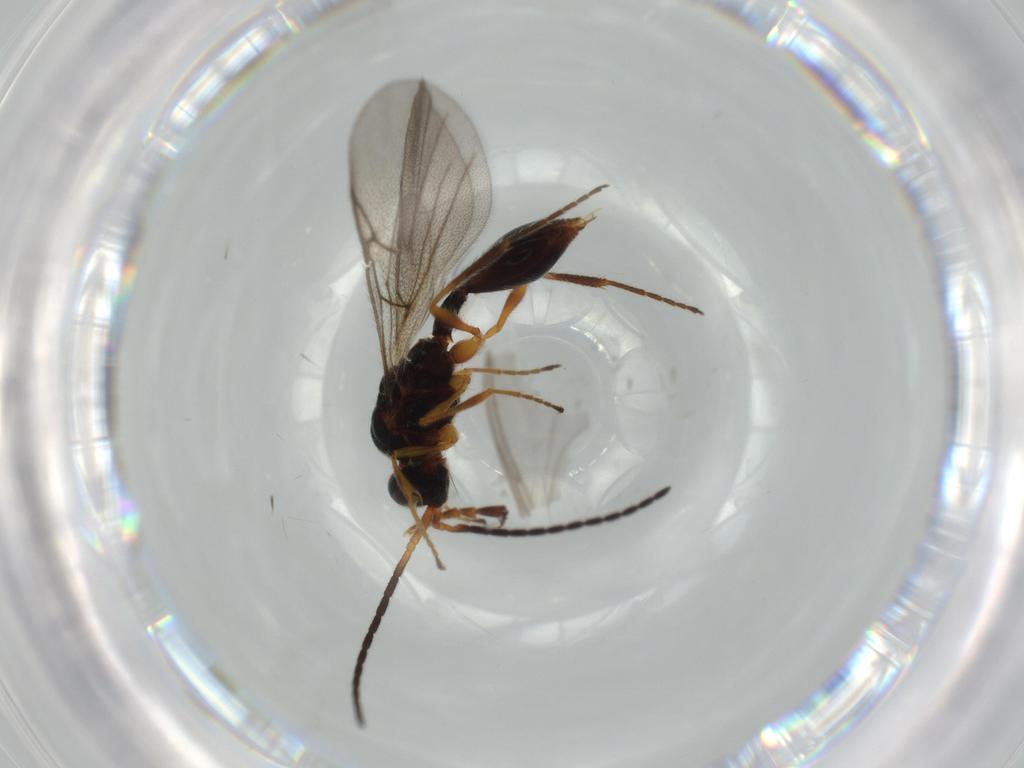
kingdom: Animalia
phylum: Arthropoda
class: Insecta
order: Hymenoptera
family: Ichneumonidae
